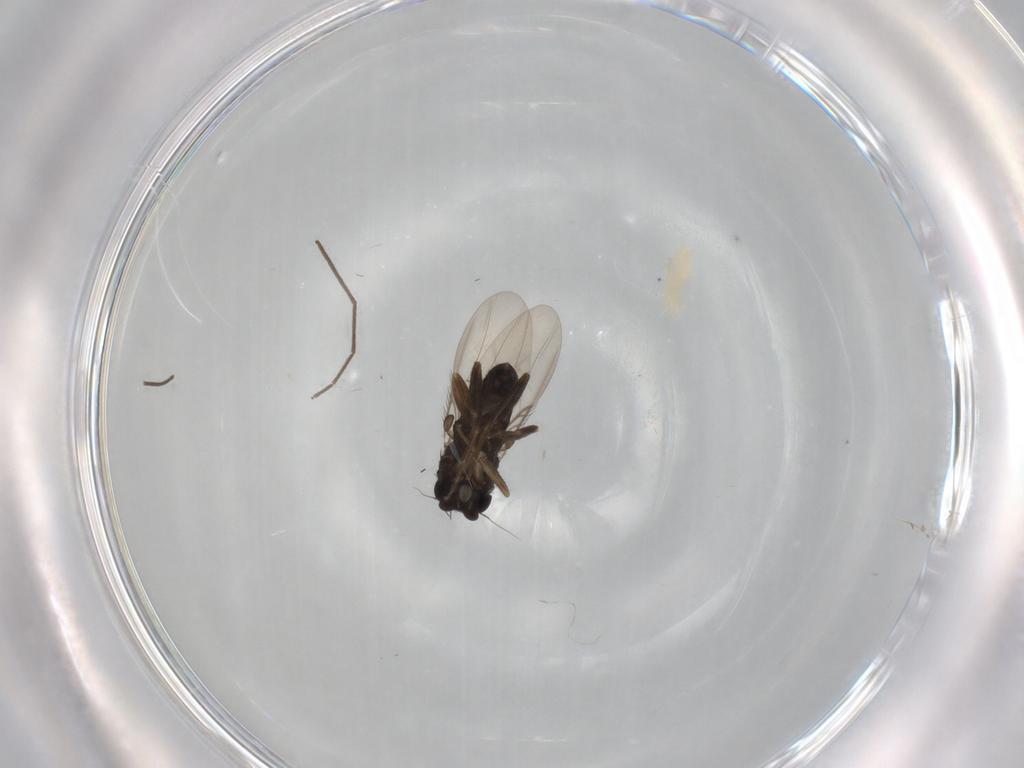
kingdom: Animalia
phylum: Arthropoda
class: Insecta
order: Diptera
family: Phoridae
